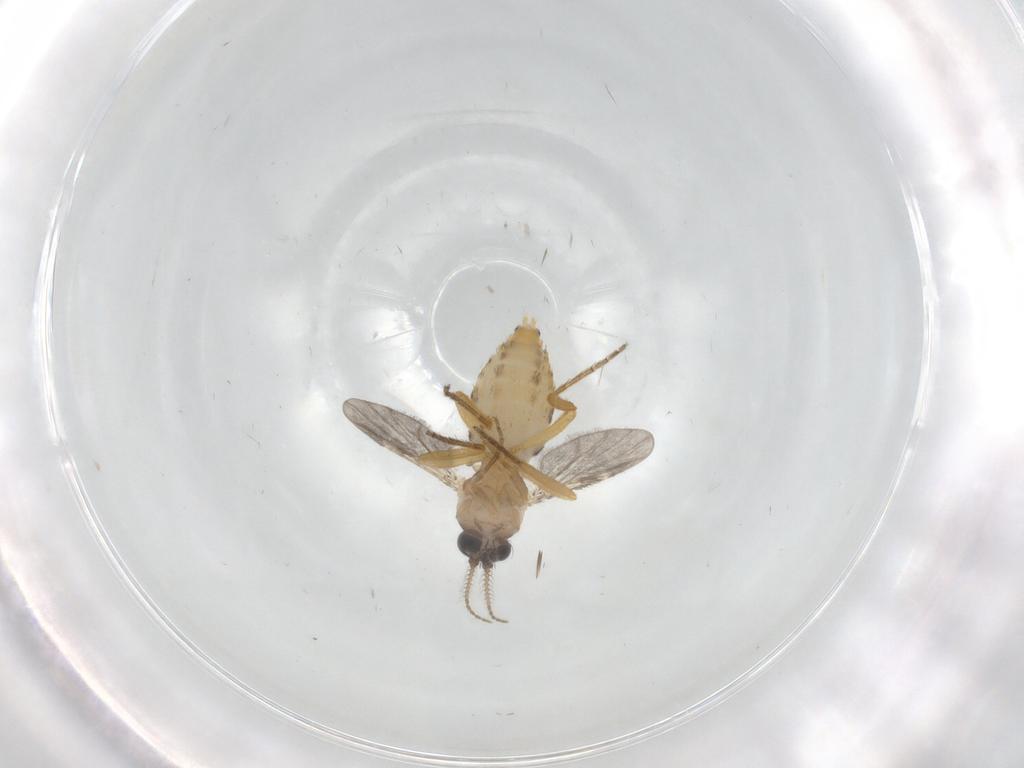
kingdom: Animalia
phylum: Arthropoda
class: Insecta
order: Diptera
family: Ceratopogonidae
